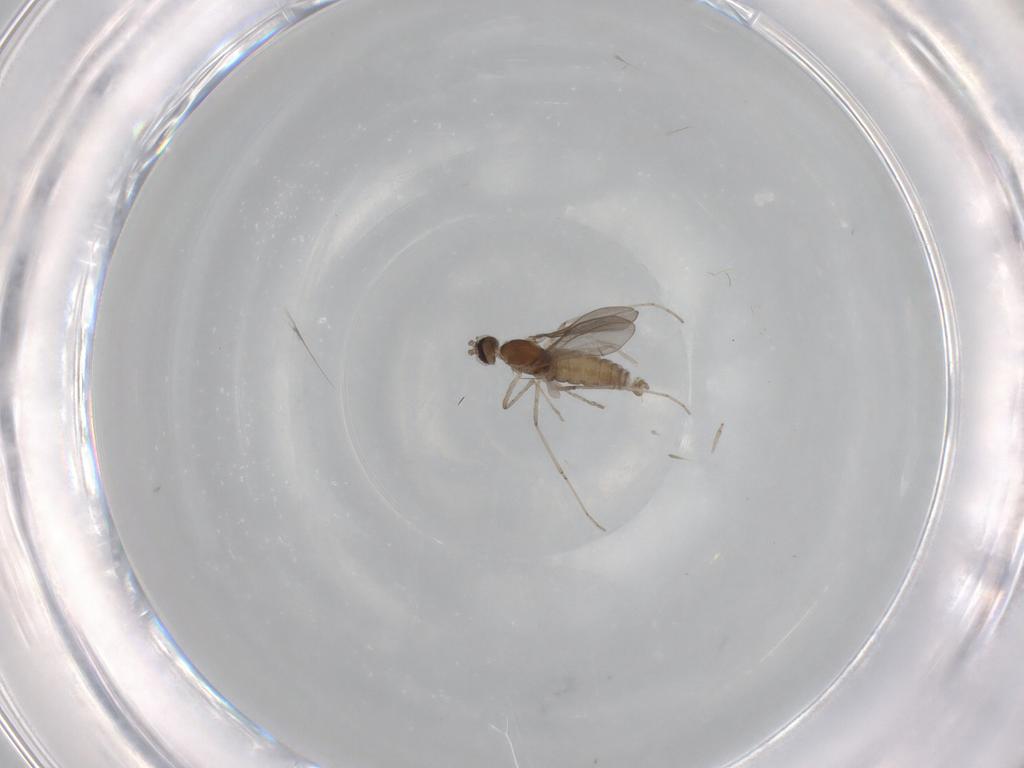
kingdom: Animalia
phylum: Arthropoda
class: Insecta
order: Diptera
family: Cecidomyiidae
